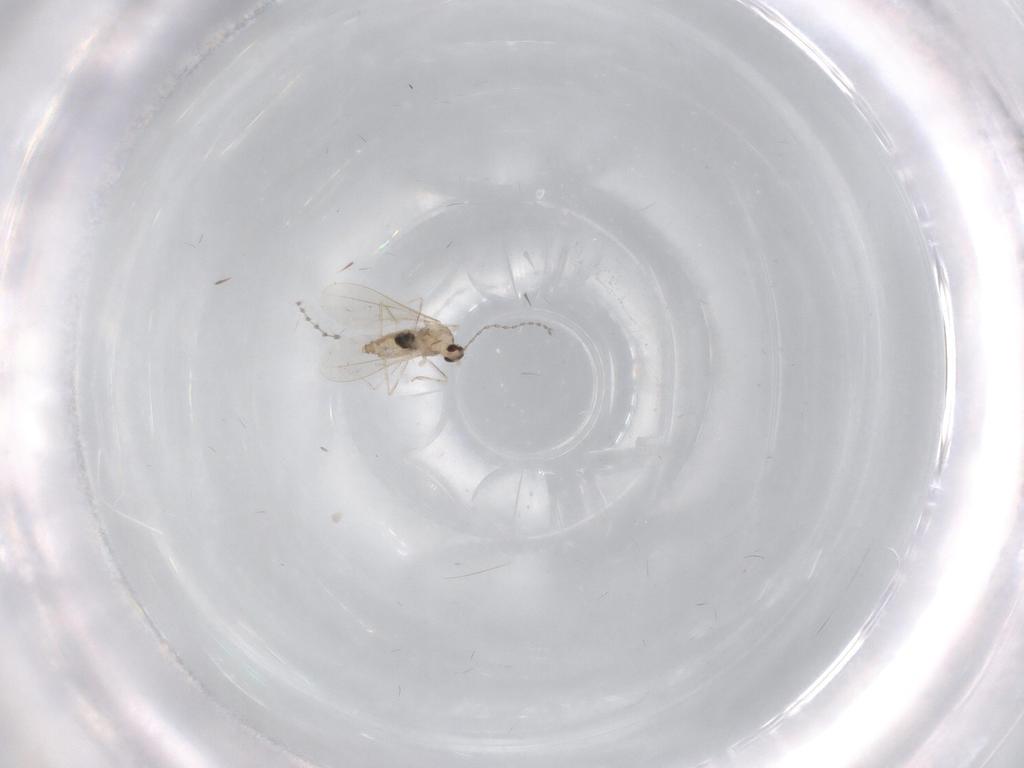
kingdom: Animalia
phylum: Arthropoda
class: Insecta
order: Diptera
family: Cecidomyiidae
